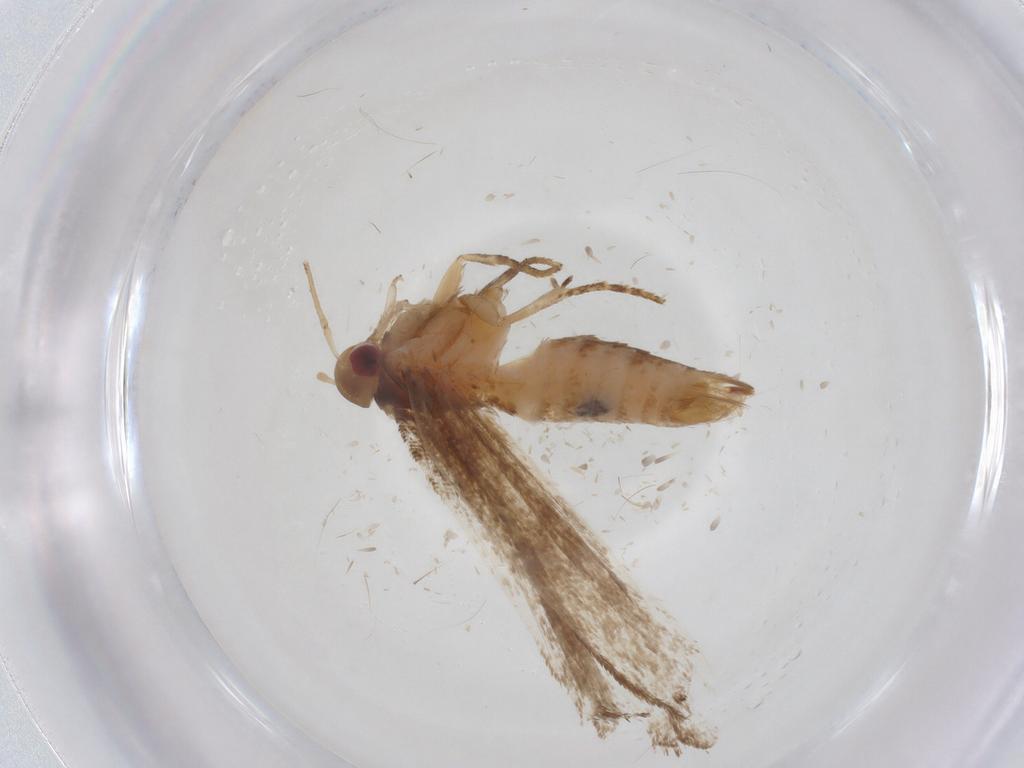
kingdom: Animalia
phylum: Arthropoda
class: Insecta
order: Lepidoptera
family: Gelechiidae
